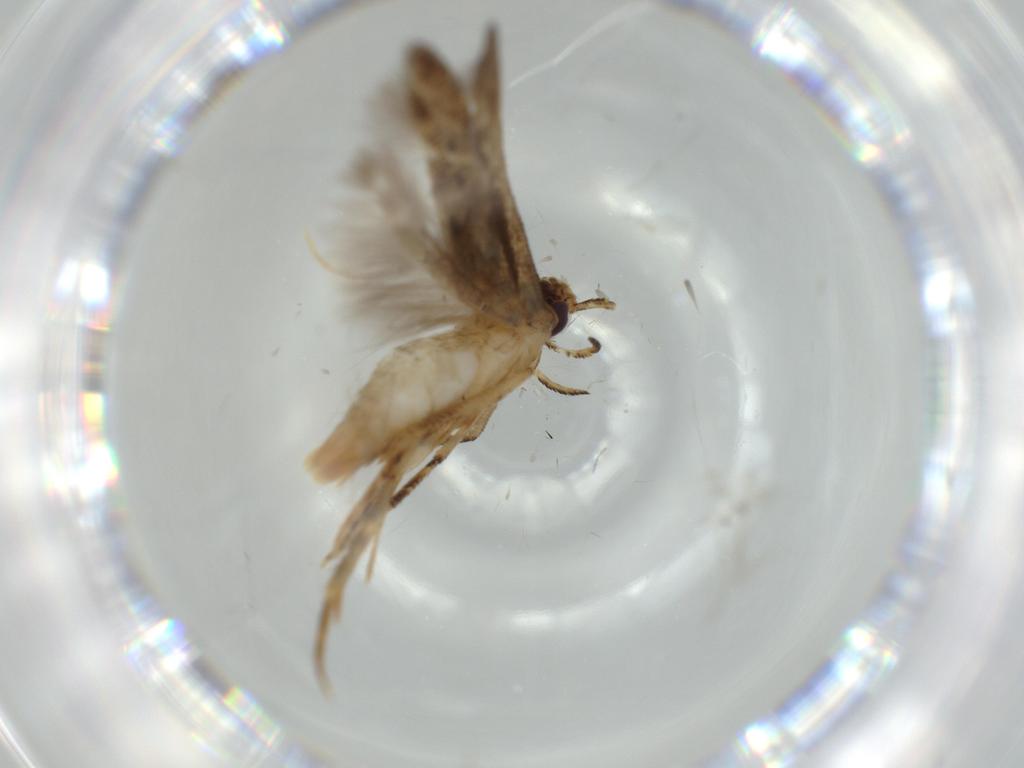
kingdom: Animalia
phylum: Arthropoda
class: Insecta
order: Lepidoptera
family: Cosmopterigidae
